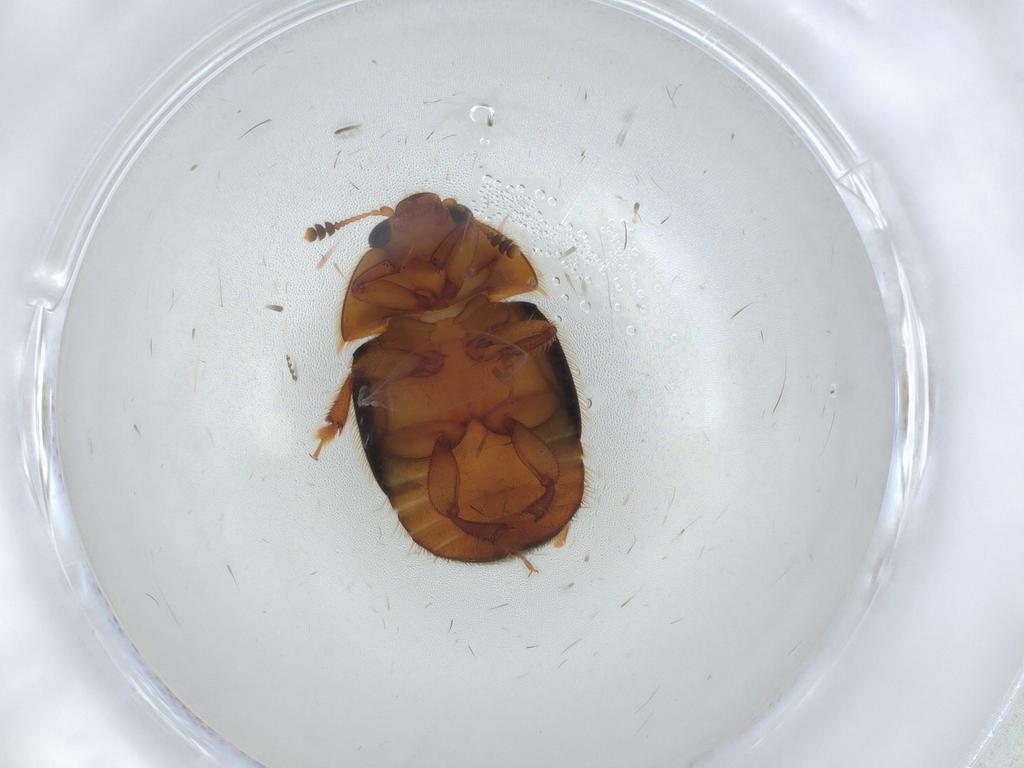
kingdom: Animalia
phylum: Arthropoda
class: Insecta
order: Coleoptera
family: Nitidulidae
